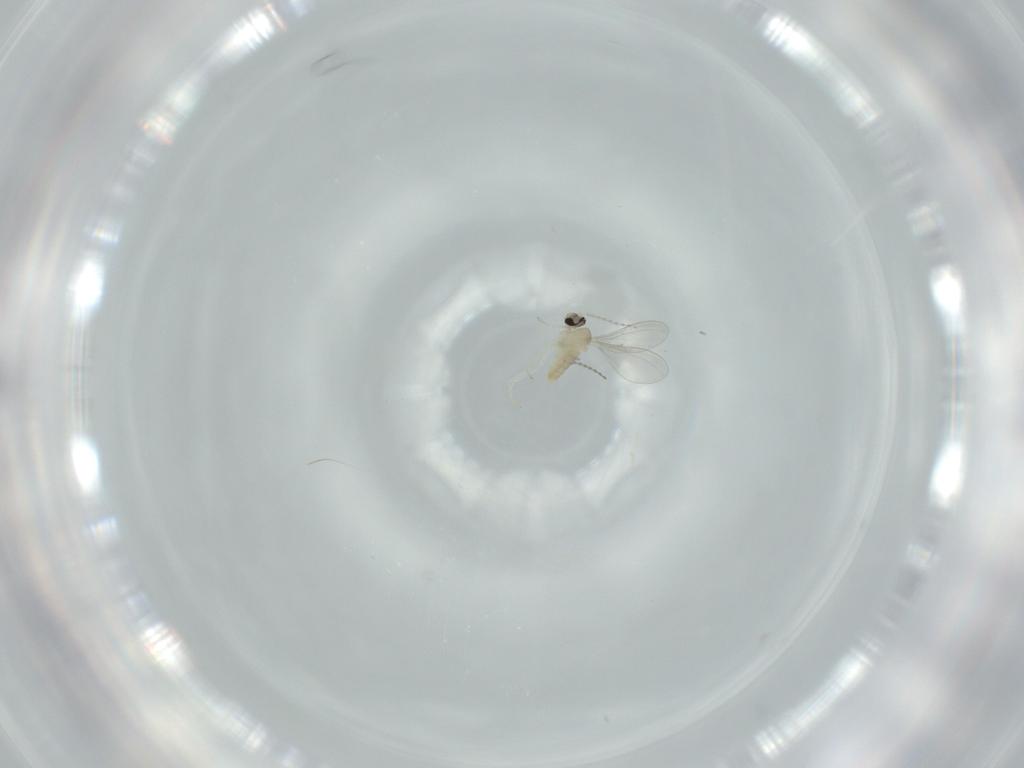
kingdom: Animalia
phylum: Arthropoda
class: Insecta
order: Diptera
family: Cecidomyiidae
